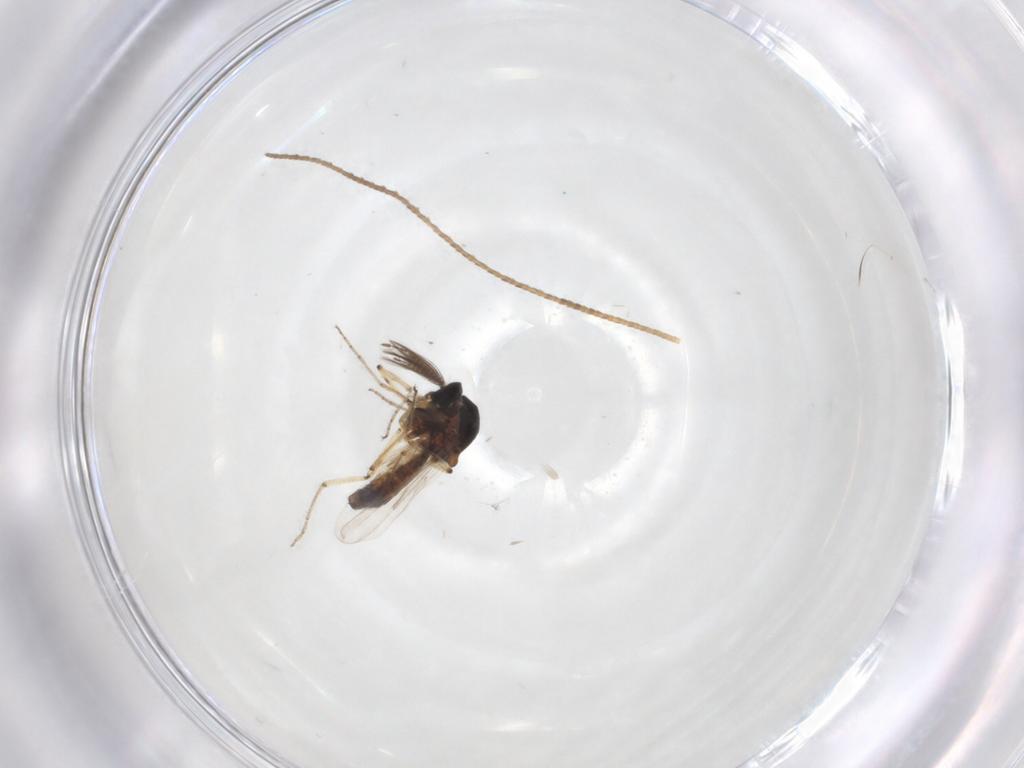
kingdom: Animalia
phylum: Arthropoda
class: Insecta
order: Diptera
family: Ceratopogonidae
